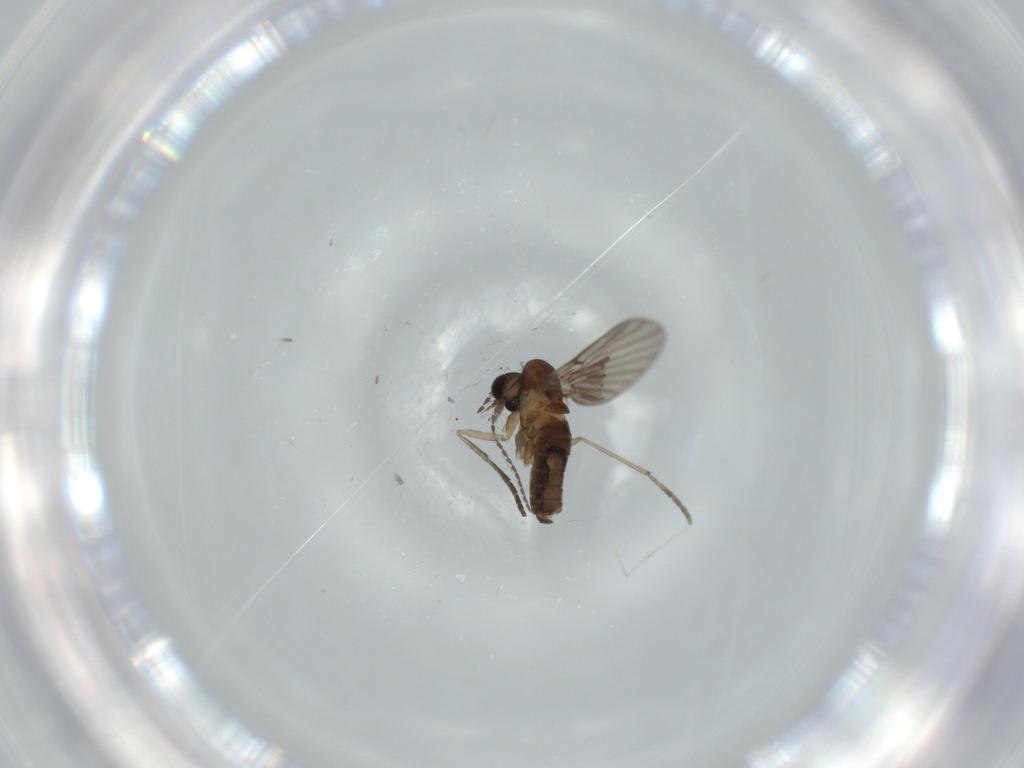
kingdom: Animalia
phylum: Arthropoda
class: Insecta
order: Diptera
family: Psychodidae
